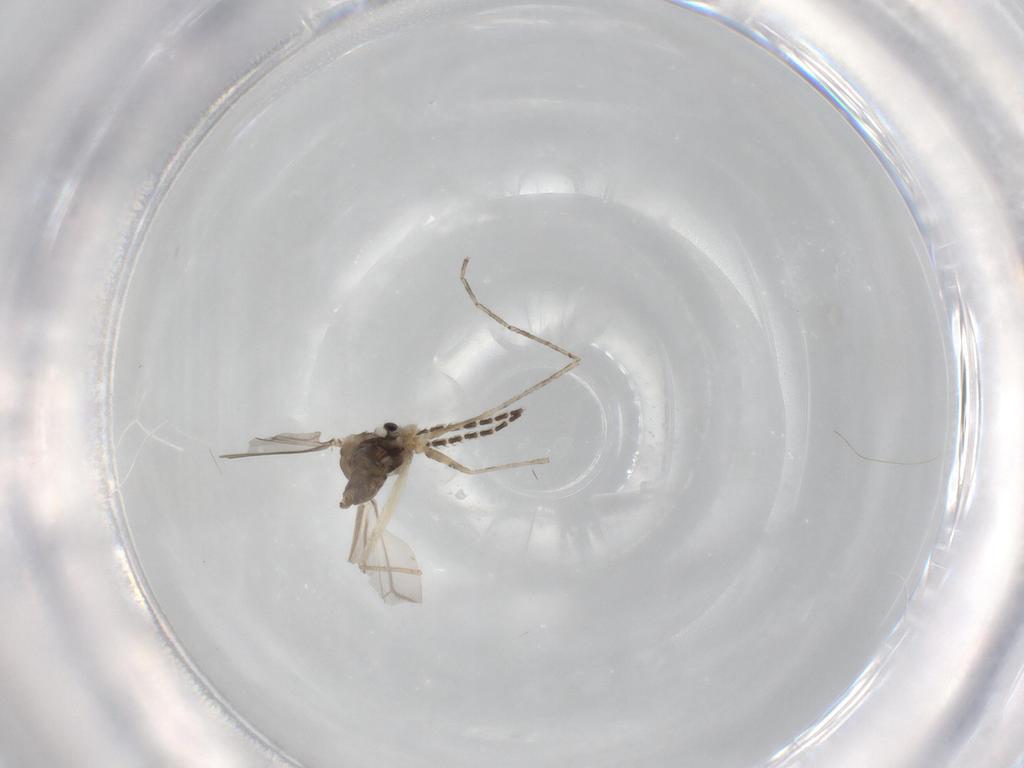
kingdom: Animalia
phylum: Arthropoda
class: Insecta
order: Diptera
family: Cecidomyiidae
